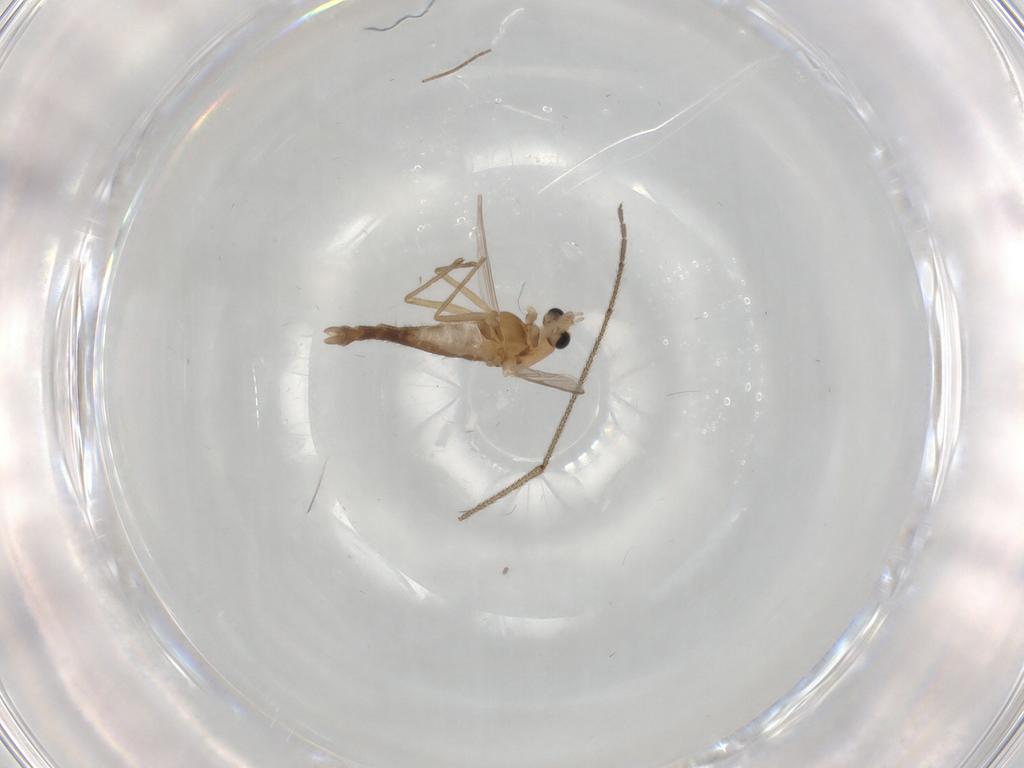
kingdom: Animalia
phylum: Arthropoda
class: Insecta
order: Diptera
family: Chironomidae
